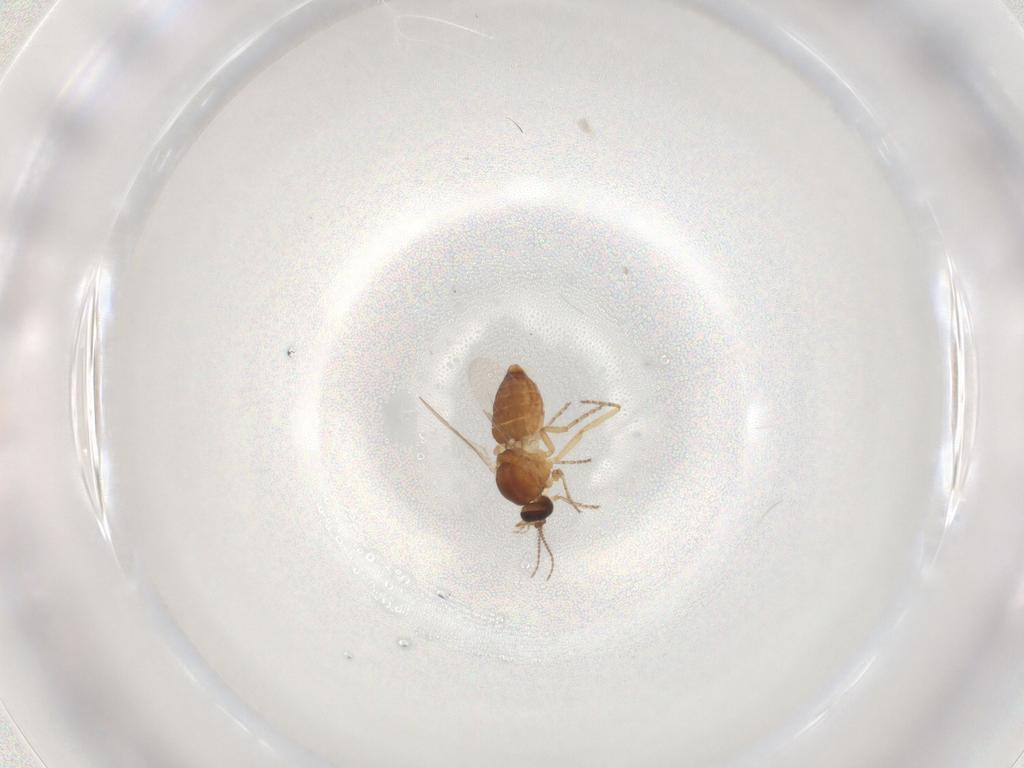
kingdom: Animalia
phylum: Arthropoda
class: Insecta
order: Diptera
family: Ceratopogonidae
